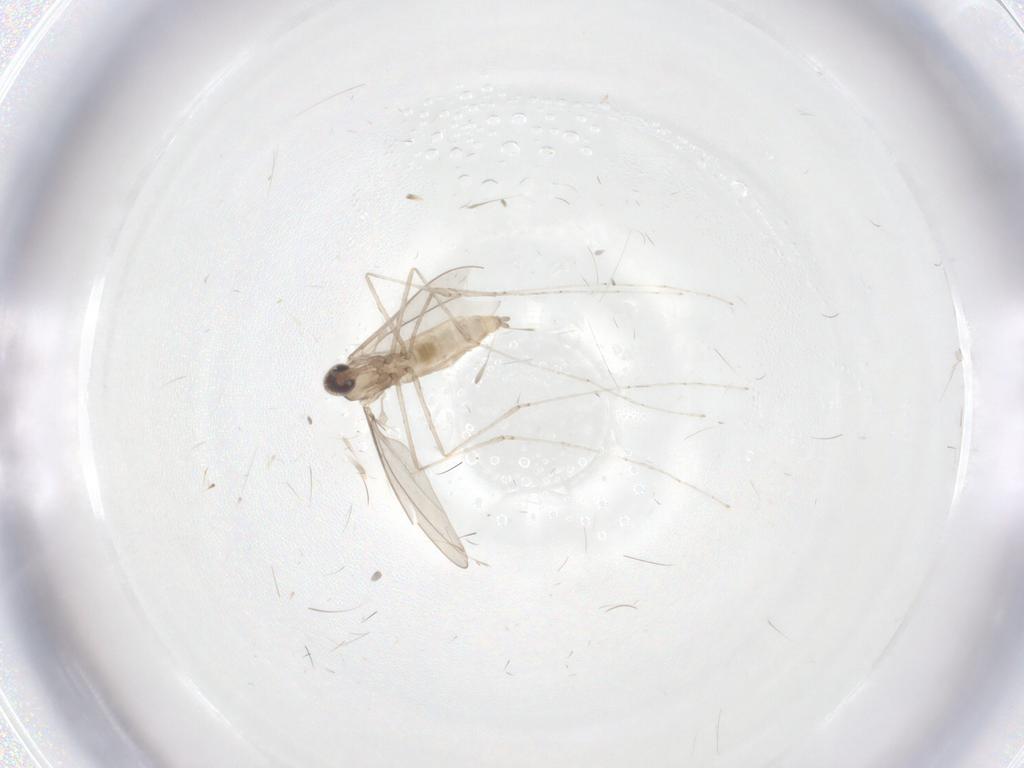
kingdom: Animalia
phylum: Arthropoda
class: Insecta
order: Diptera
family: Cecidomyiidae
